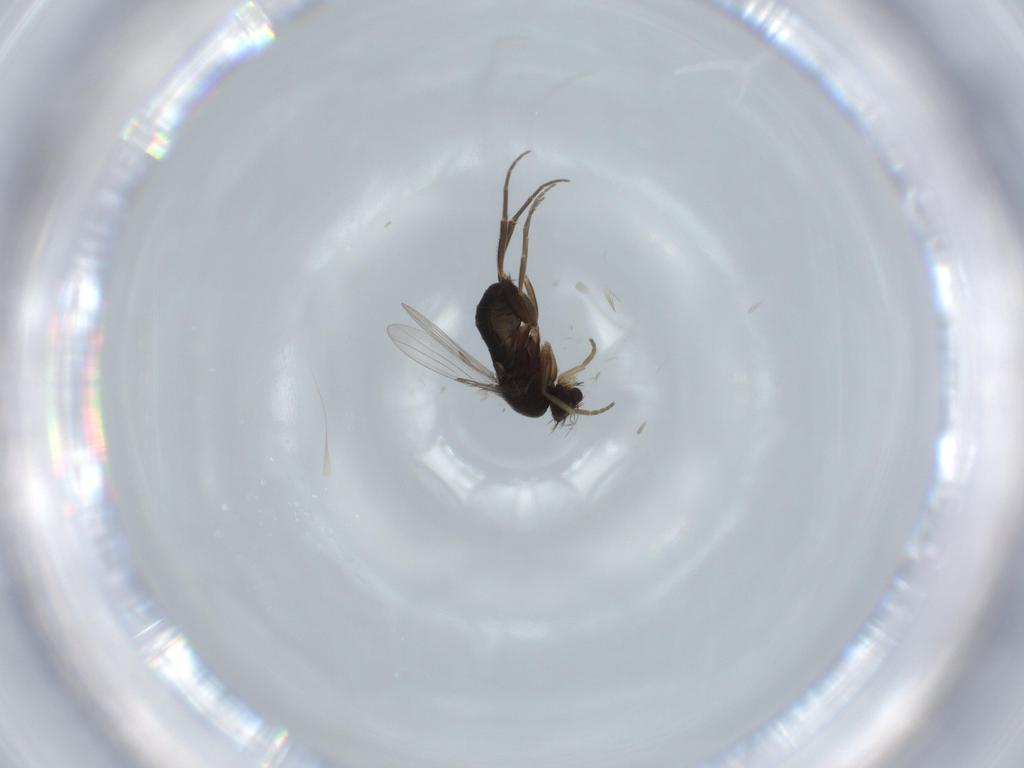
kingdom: Animalia
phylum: Arthropoda
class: Insecta
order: Diptera
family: Phoridae
